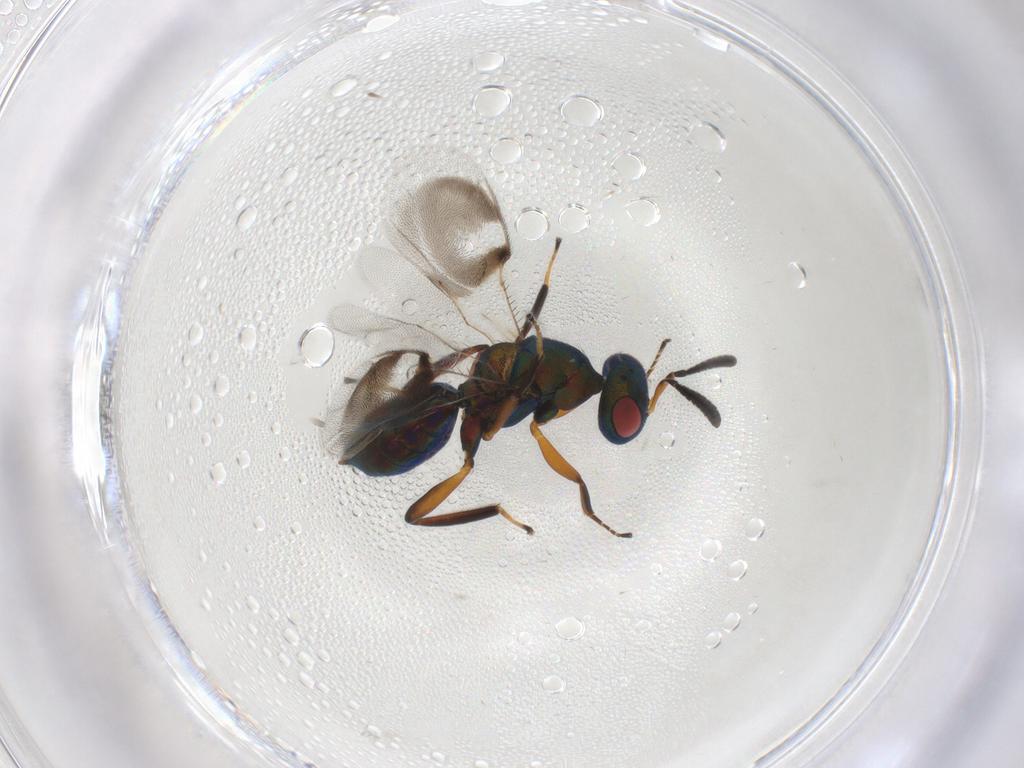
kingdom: Animalia
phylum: Arthropoda
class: Insecta
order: Hymenoptera
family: Pteromalidae
